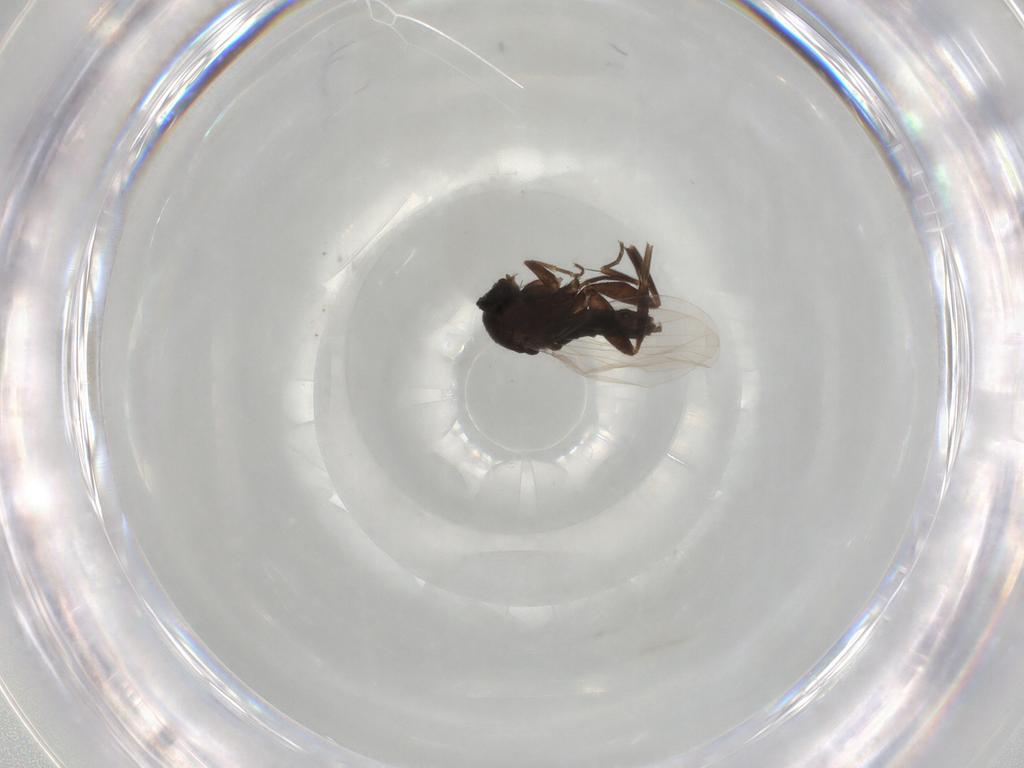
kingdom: Animalia
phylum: Arthropoda
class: Insecta
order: Diptera
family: Phoridae
